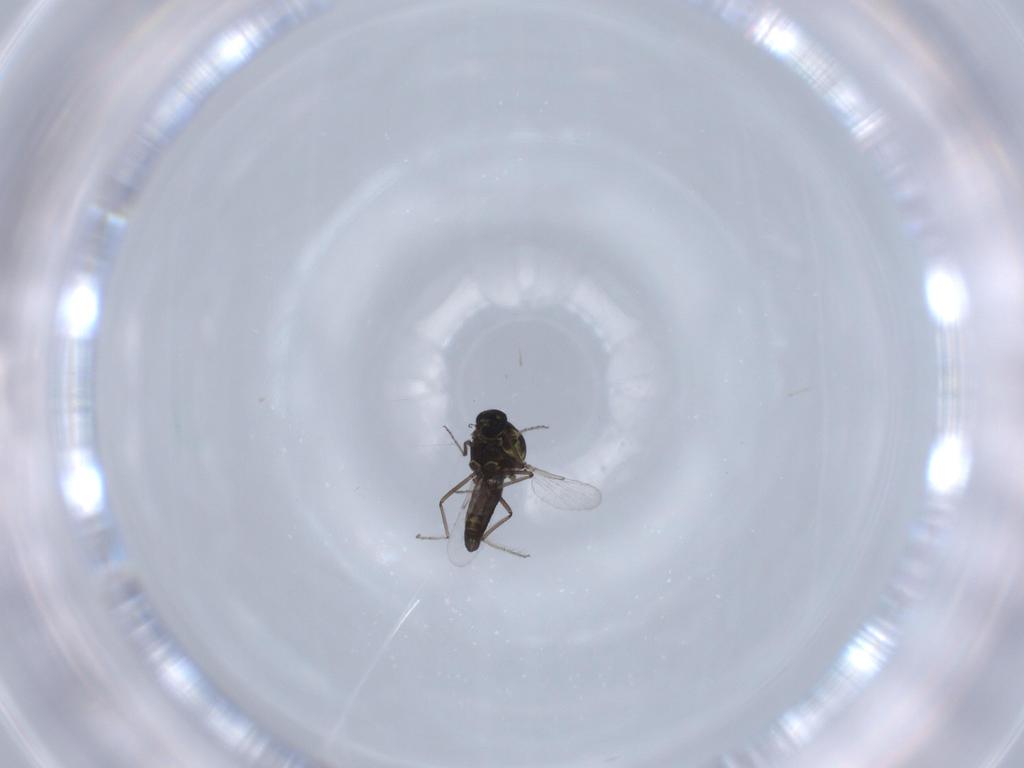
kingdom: Animalia
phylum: Arthropoda
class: Insecta
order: Diptera
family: Ceratopogonidae
